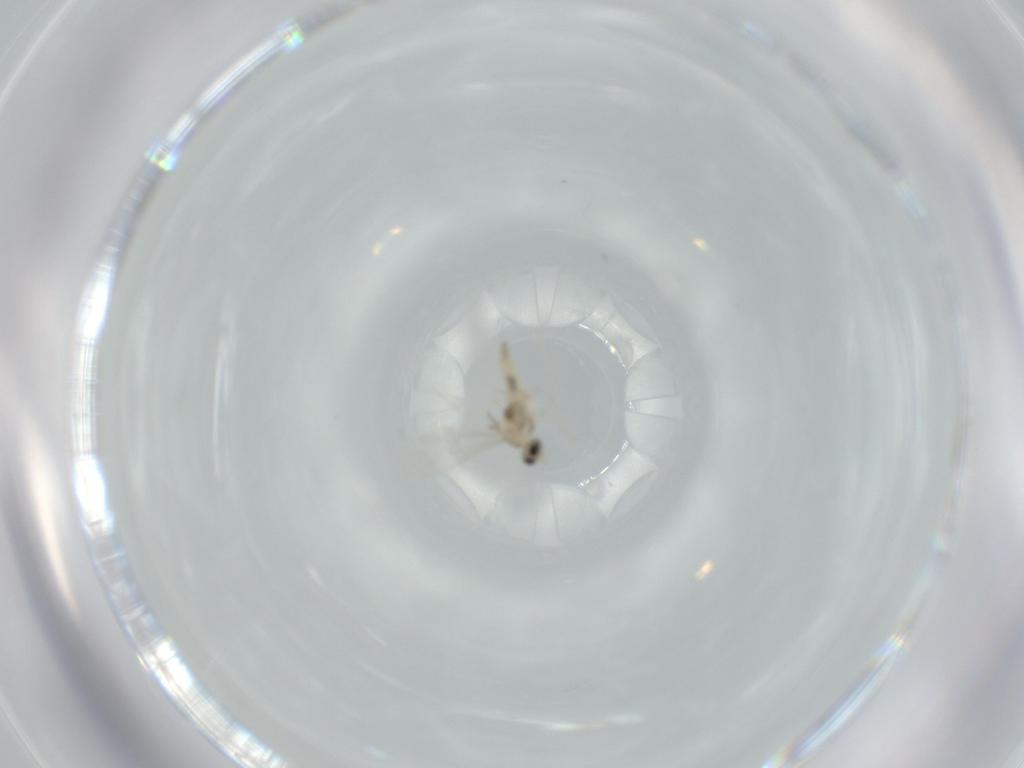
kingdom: Animalia
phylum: Arthropoda
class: Insecta
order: Diptera
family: Cecidomyiidae
